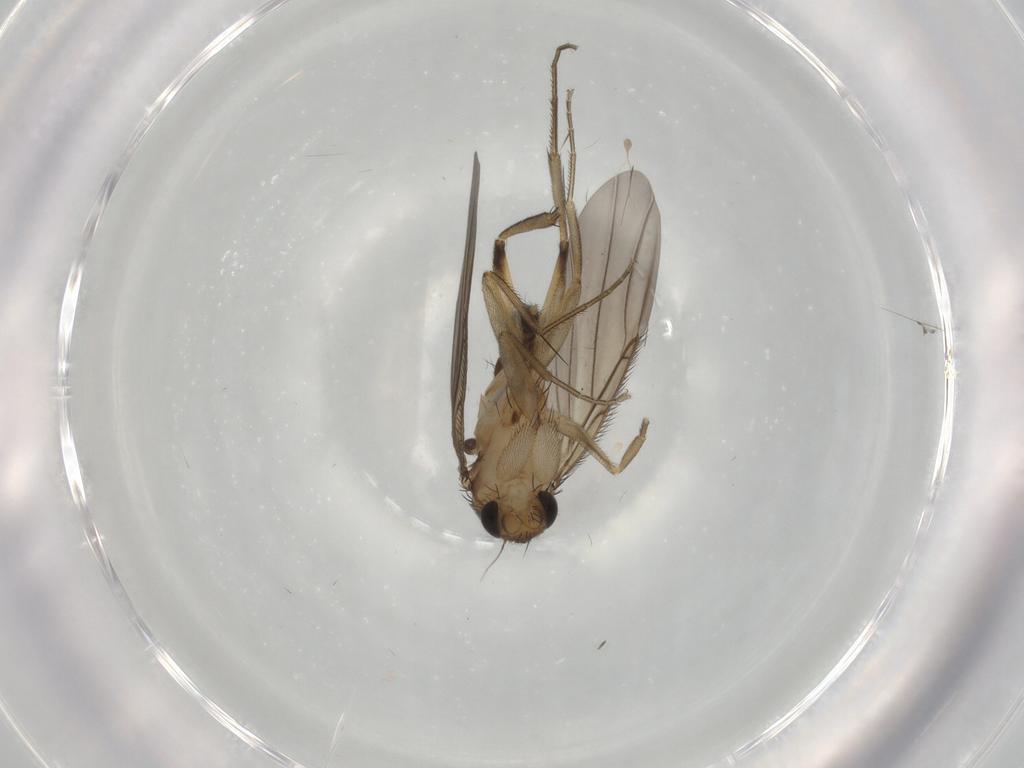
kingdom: Animalia
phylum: Arthropoda
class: Insecta
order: Diptera
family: Phoridae
